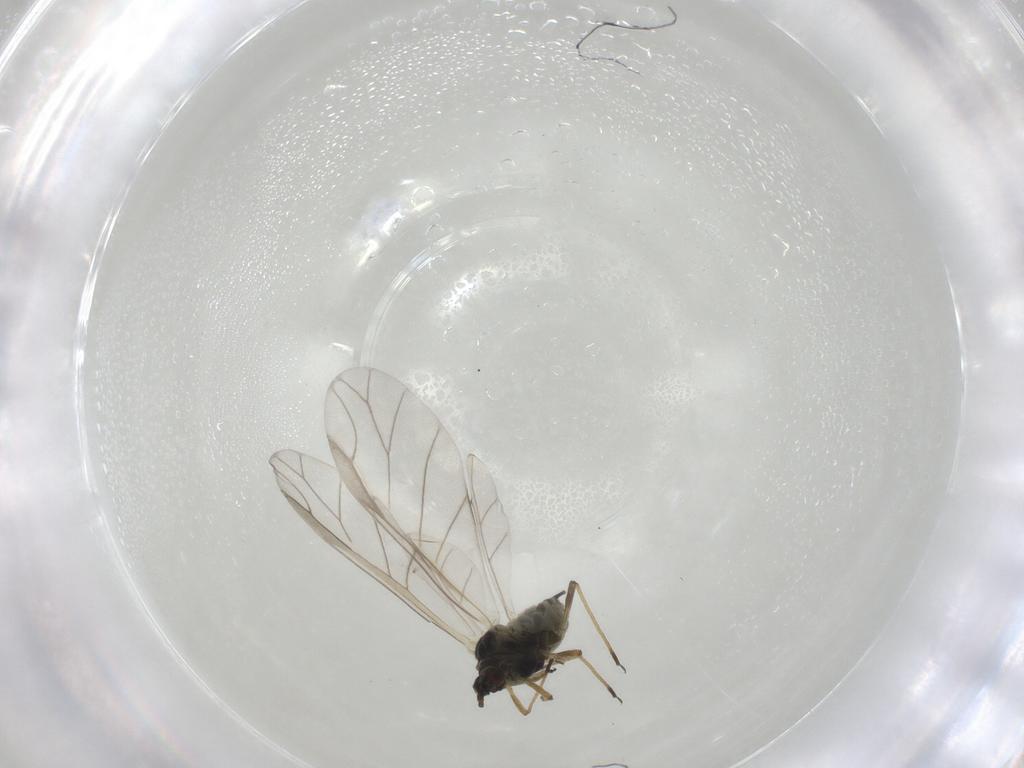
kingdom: Animalia
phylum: Arthropoda
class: Insecta
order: Hemiptera
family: Aphididae
